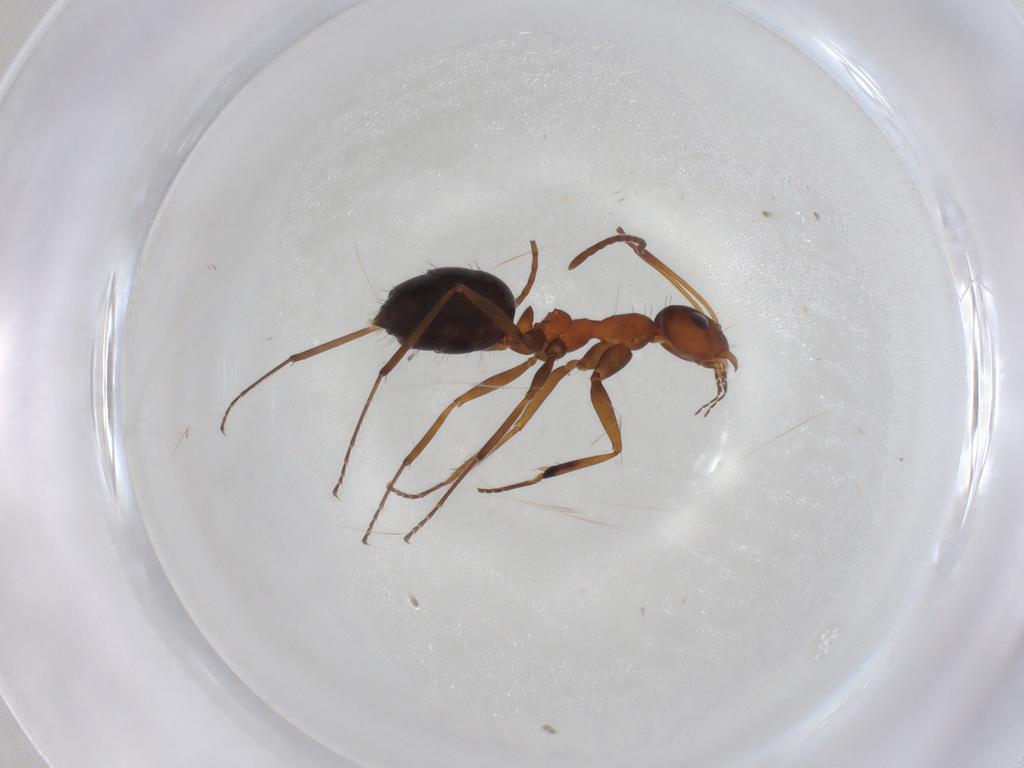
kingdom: Animalia
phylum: Arthropoda
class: Insecta
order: Hymenoptera
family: Formicidae
